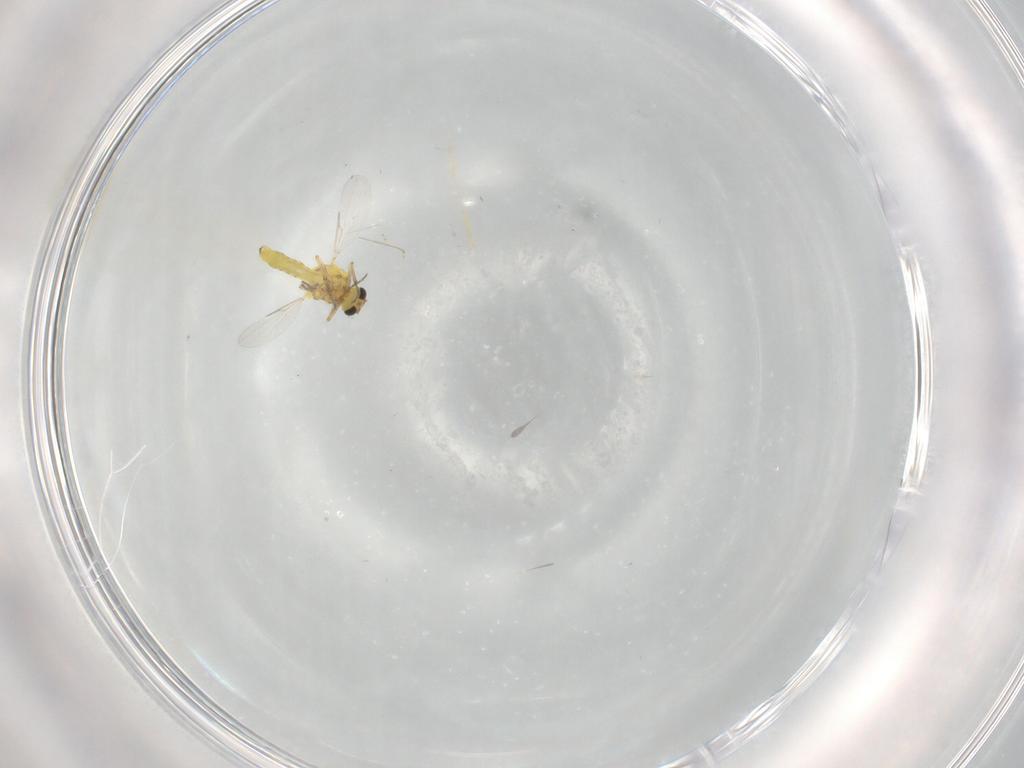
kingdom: Animalia
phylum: Arthropoda
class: Insecta
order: Diptera
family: Ceratopogonidae
